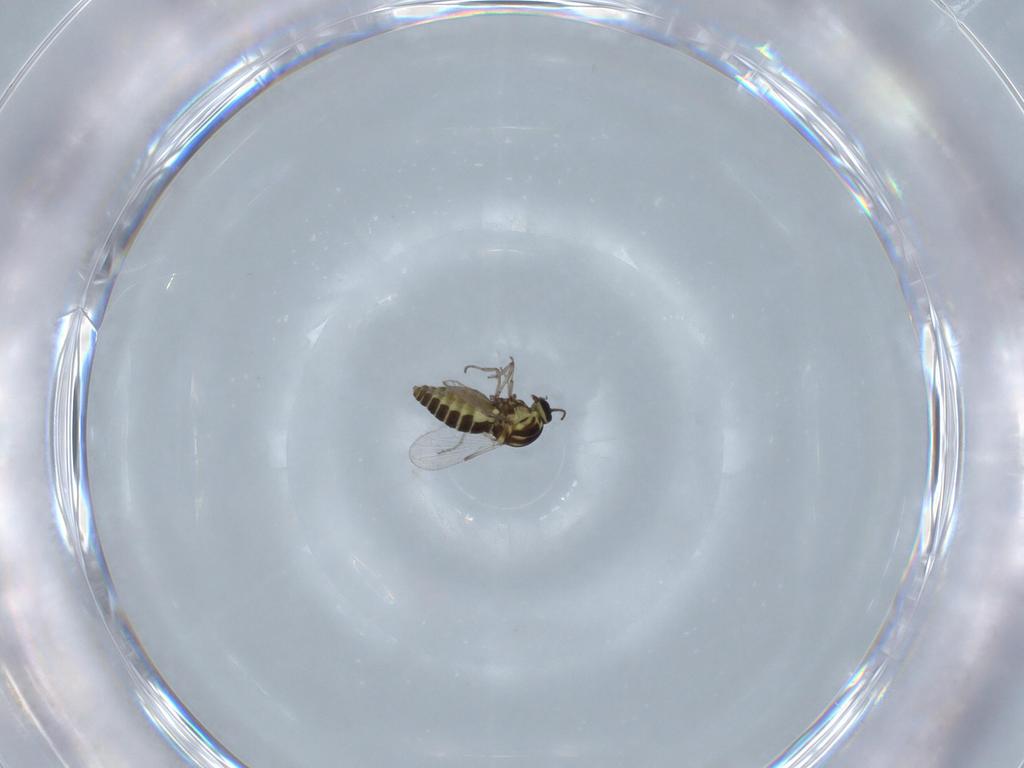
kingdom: Animalia
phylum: Arthropoda
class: Insecta
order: Diptera
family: Ceratopogonidae
